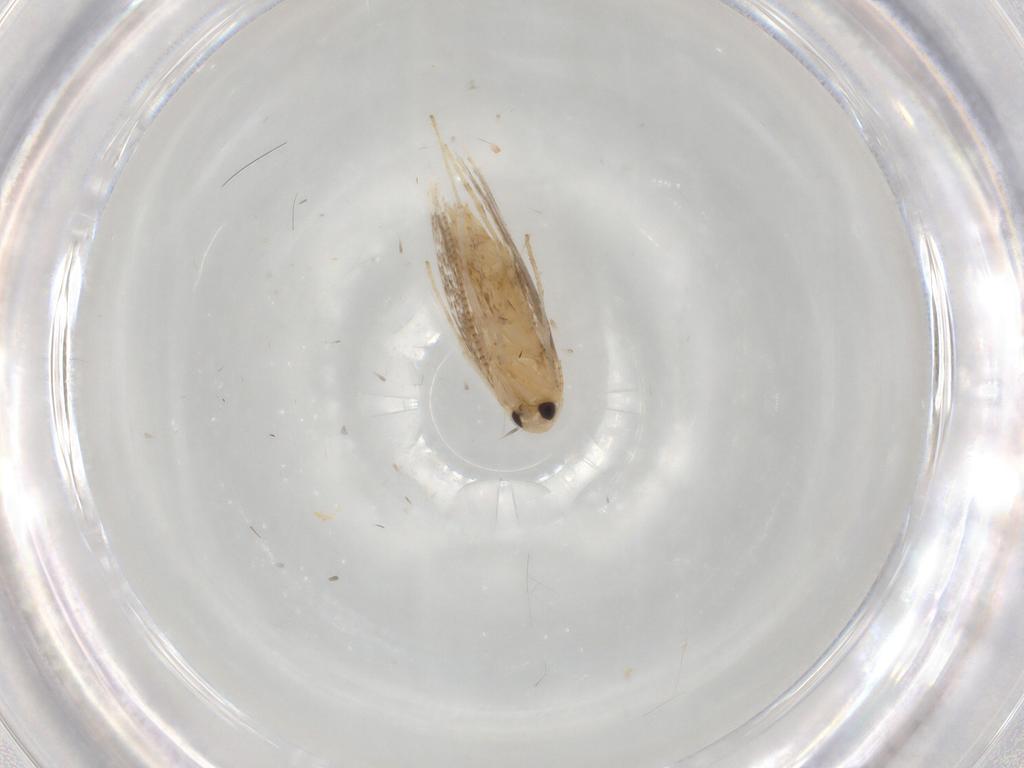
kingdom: Animalia
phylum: Arthropoda
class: Insecta
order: Lepidoptera
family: Gracillariidae
